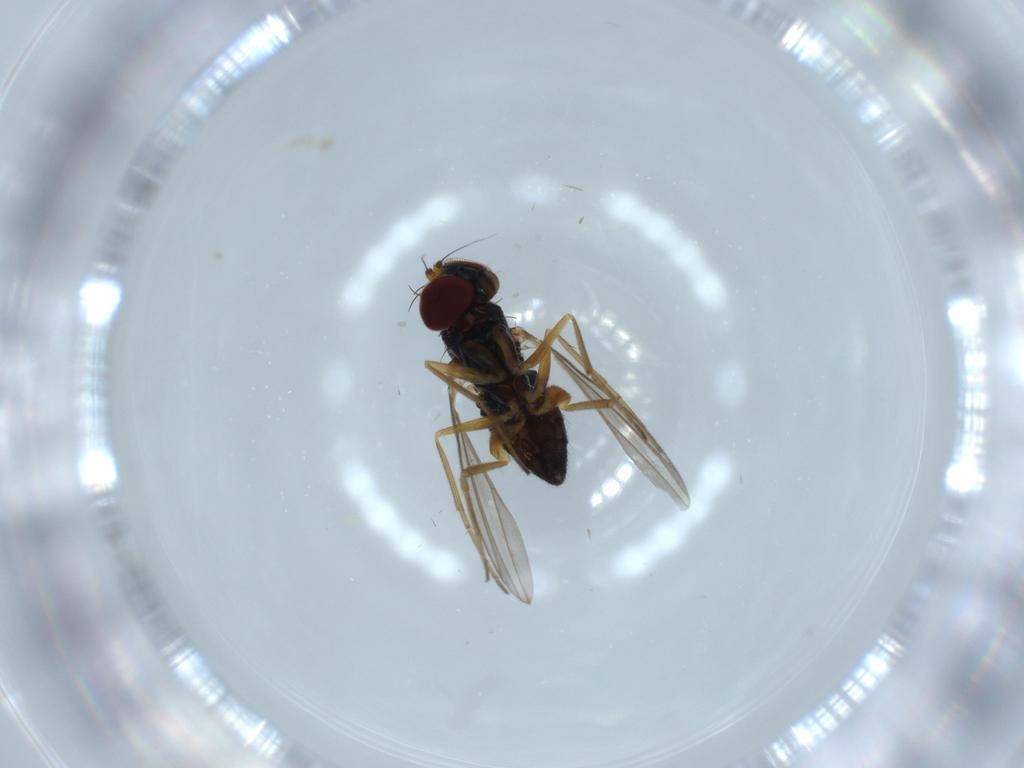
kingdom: Animalia
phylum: Arthropoda
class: Insecta
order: Diptera
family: Dolichopodidae
